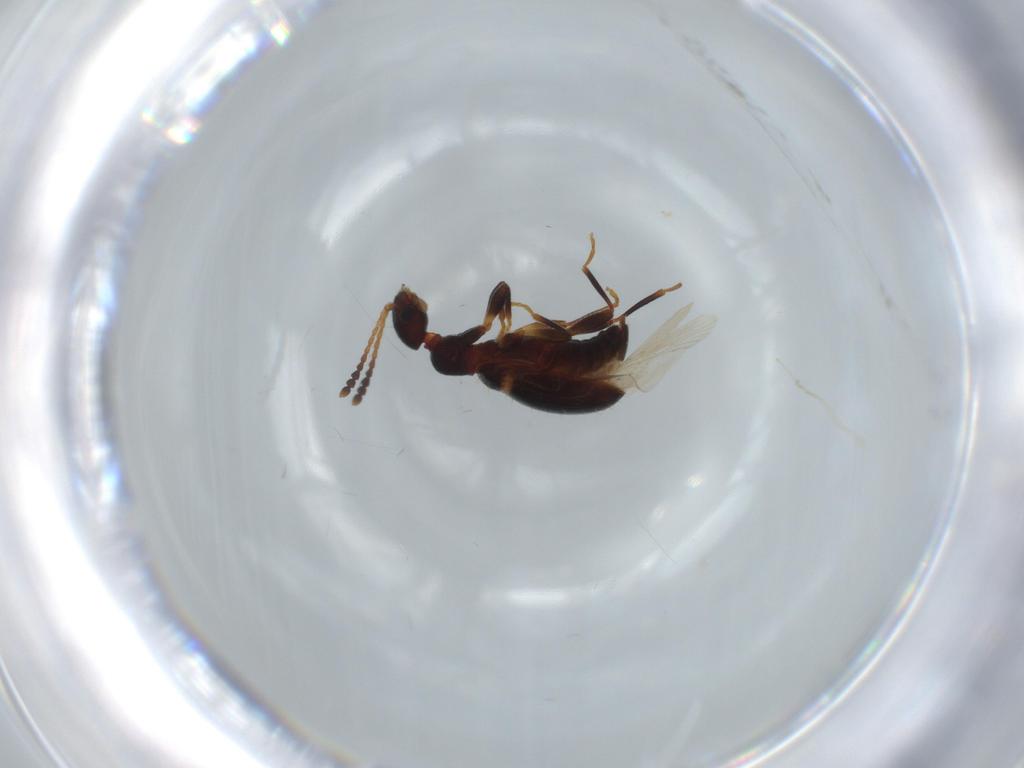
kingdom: Animalia
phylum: Arthropoda
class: Insecta
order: Coleoptera
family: Anthicidae
